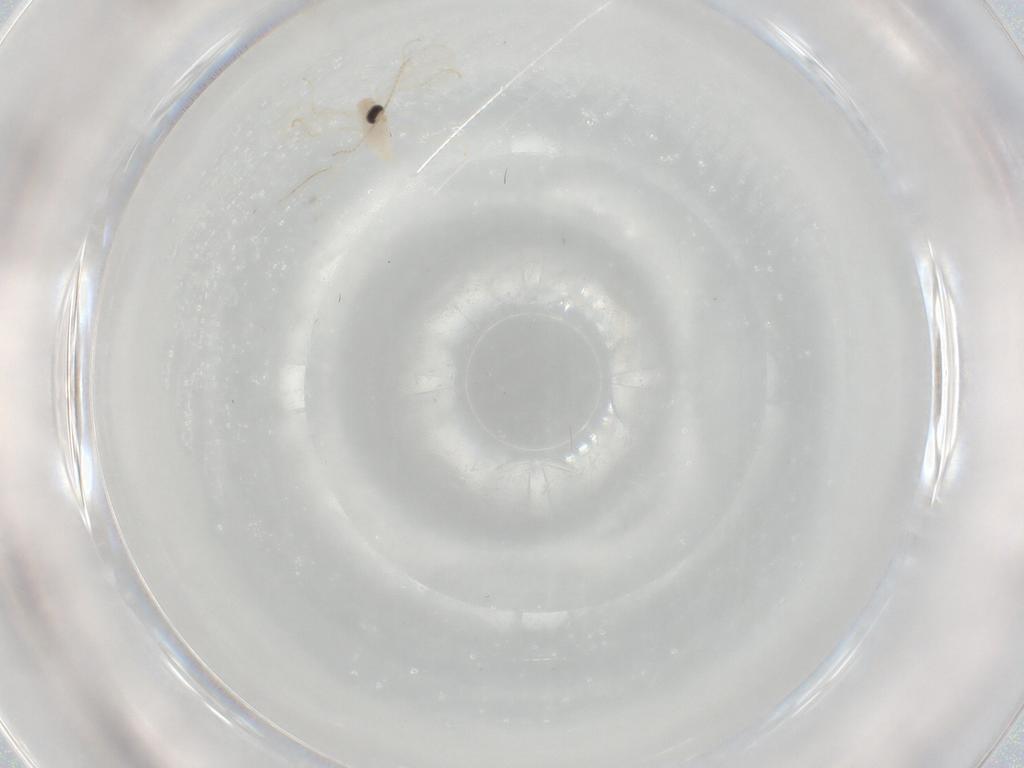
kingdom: Animalia
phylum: Arthropoda
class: Insecta
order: Diptera
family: Cecidomyiidae
